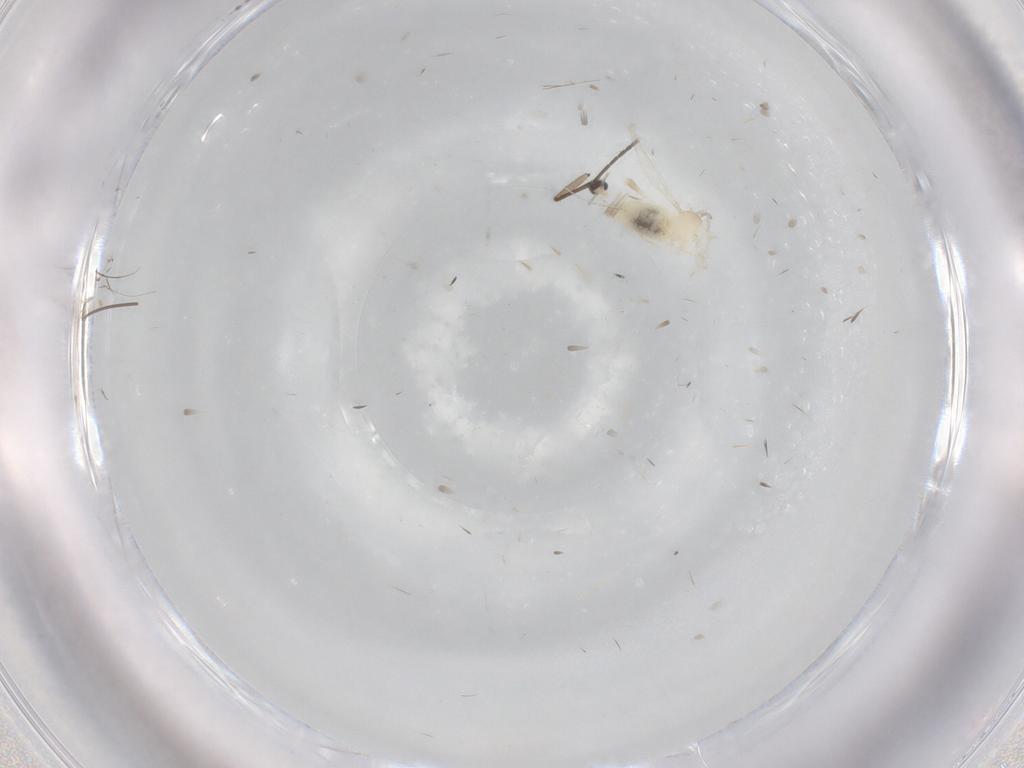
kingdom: Animalia
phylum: Arthropoda
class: Insecta
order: Diptera
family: Cecidomyiidae
